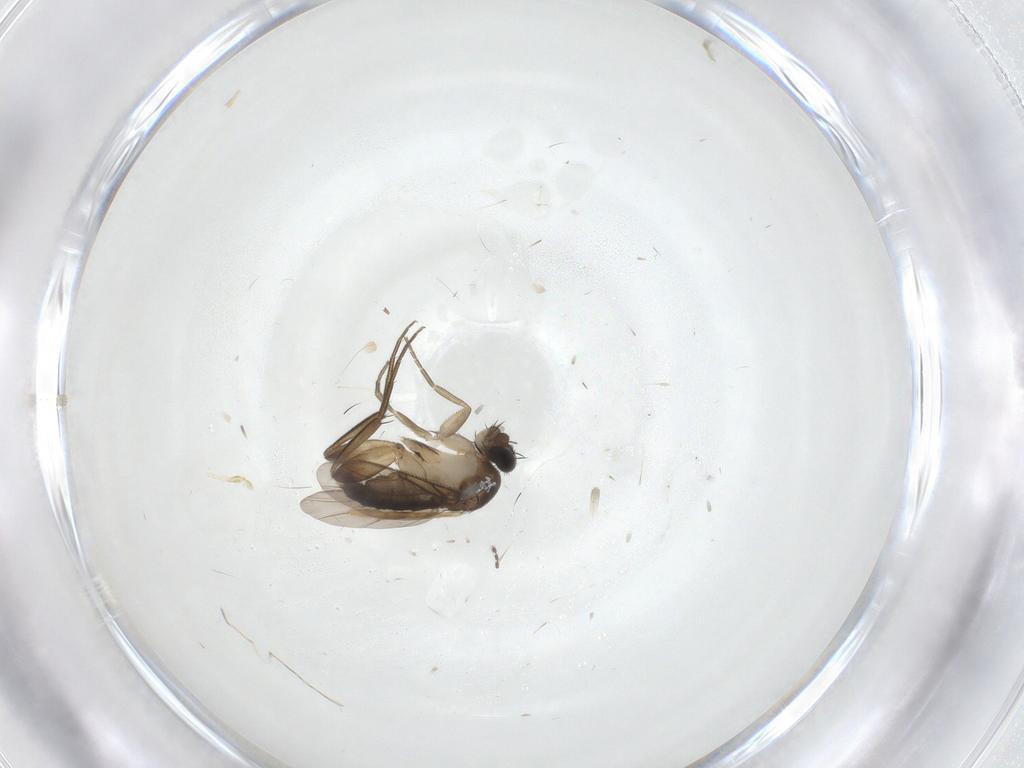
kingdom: Animalia
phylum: Arthropoda
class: Insecta
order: Diptera
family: Phoridae
